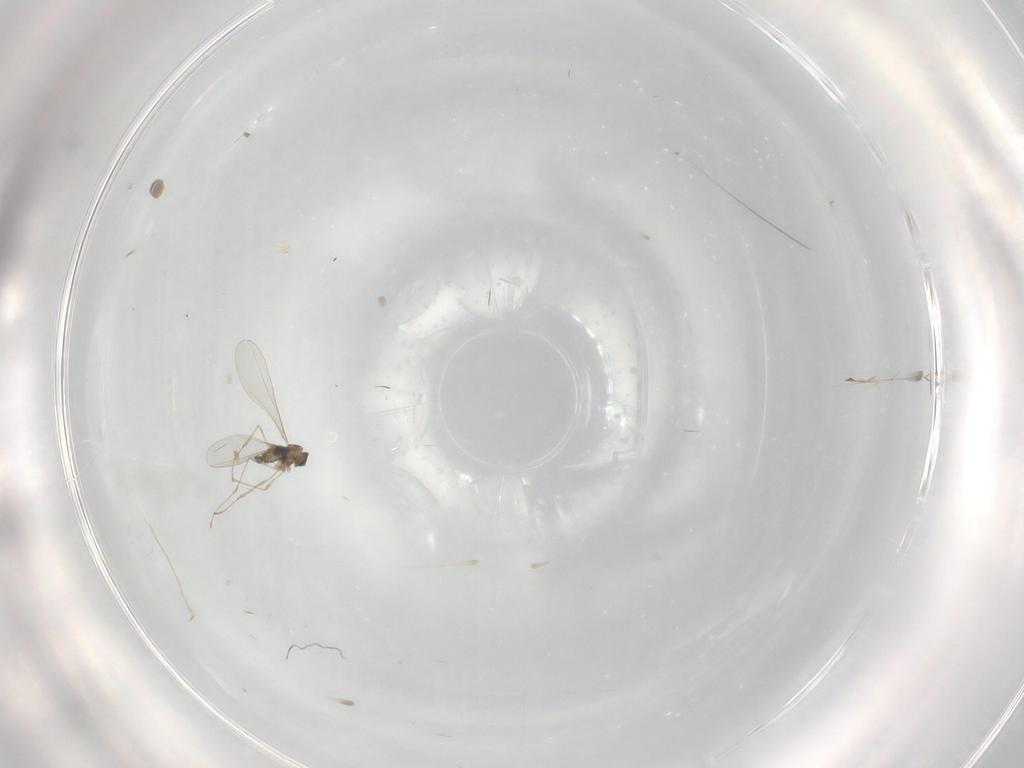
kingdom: Animalia
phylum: Arthropoda
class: Insecta
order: Diptera
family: Cecidomyiidae
